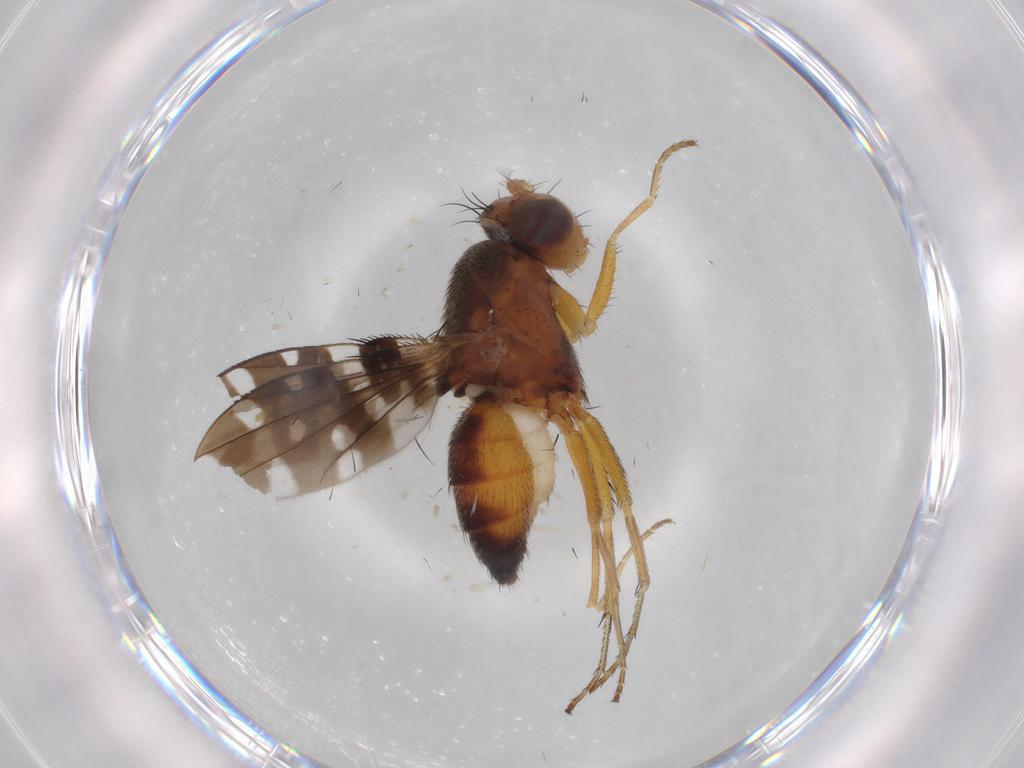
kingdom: Animalia
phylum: Arthropoda
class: Insecta
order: Diptera
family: Ephydridae
